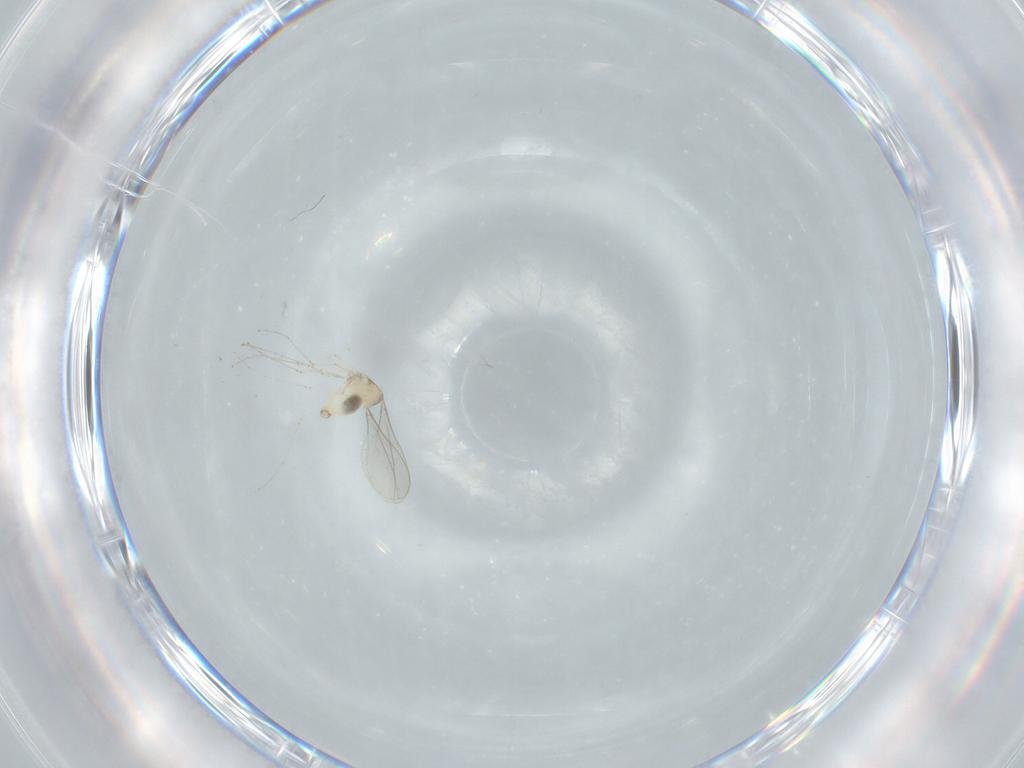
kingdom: Animalia
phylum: Arthropoda
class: Insecta
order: Diptera
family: Cecidomyiidae
